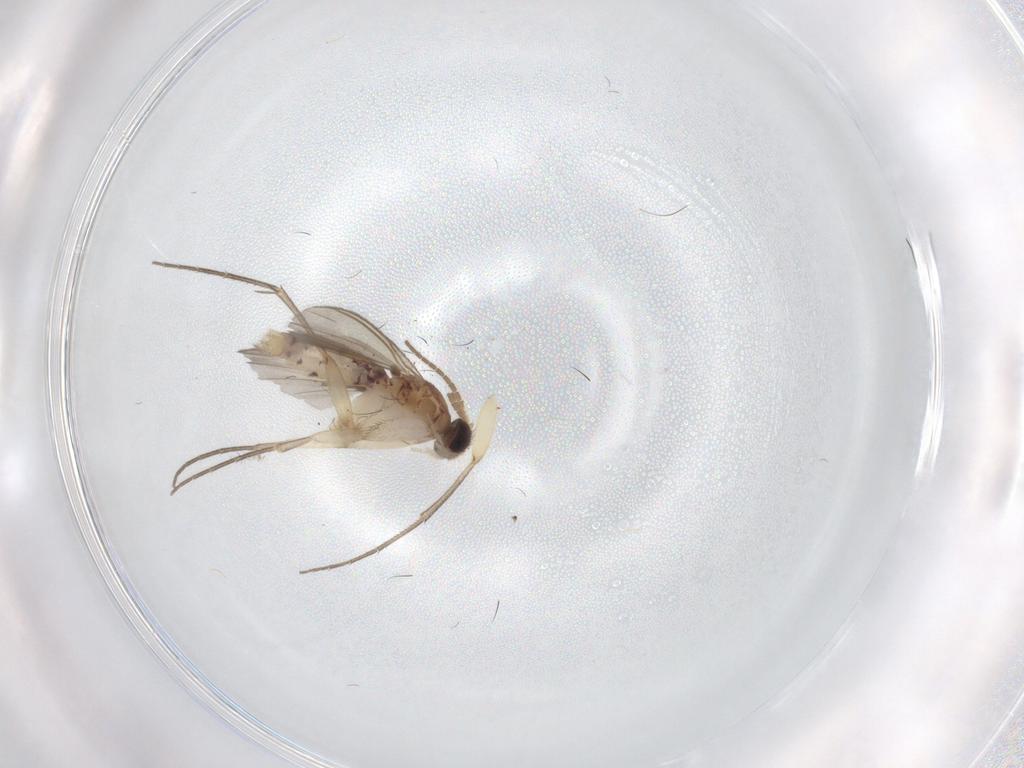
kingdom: Animalia
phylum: Arthropoda
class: Insecta
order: Diptera
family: Mycetophilidae
